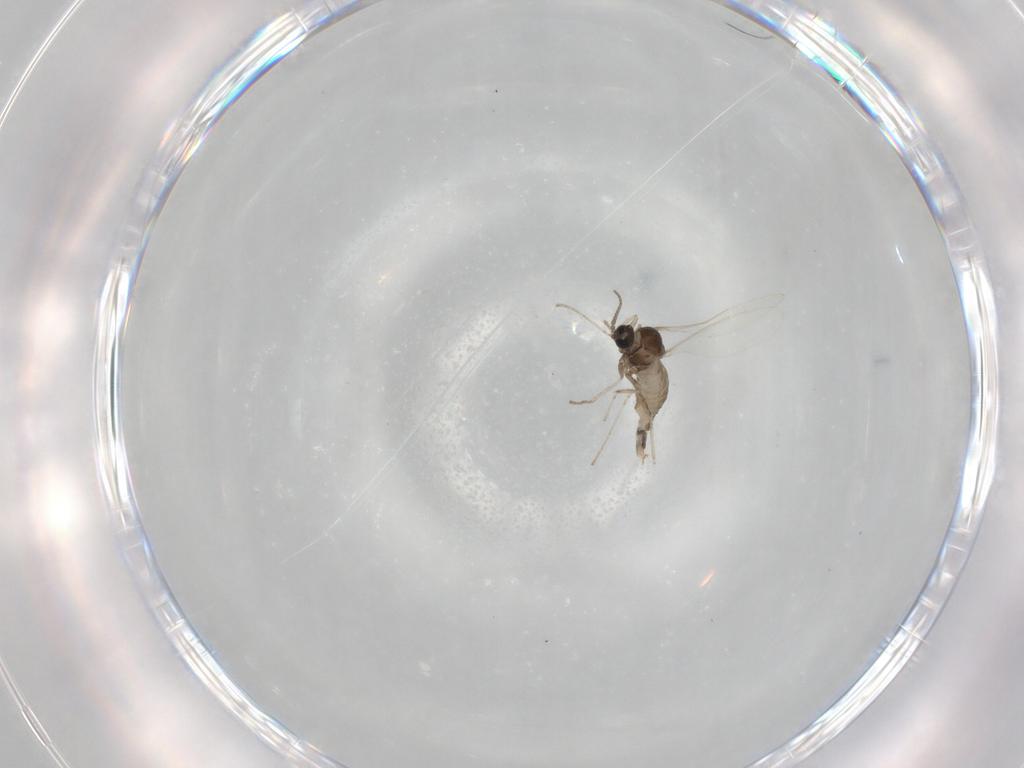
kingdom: Animalia
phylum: Arthropoda
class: Insecta
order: Diptera
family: Cecidomyiidae
